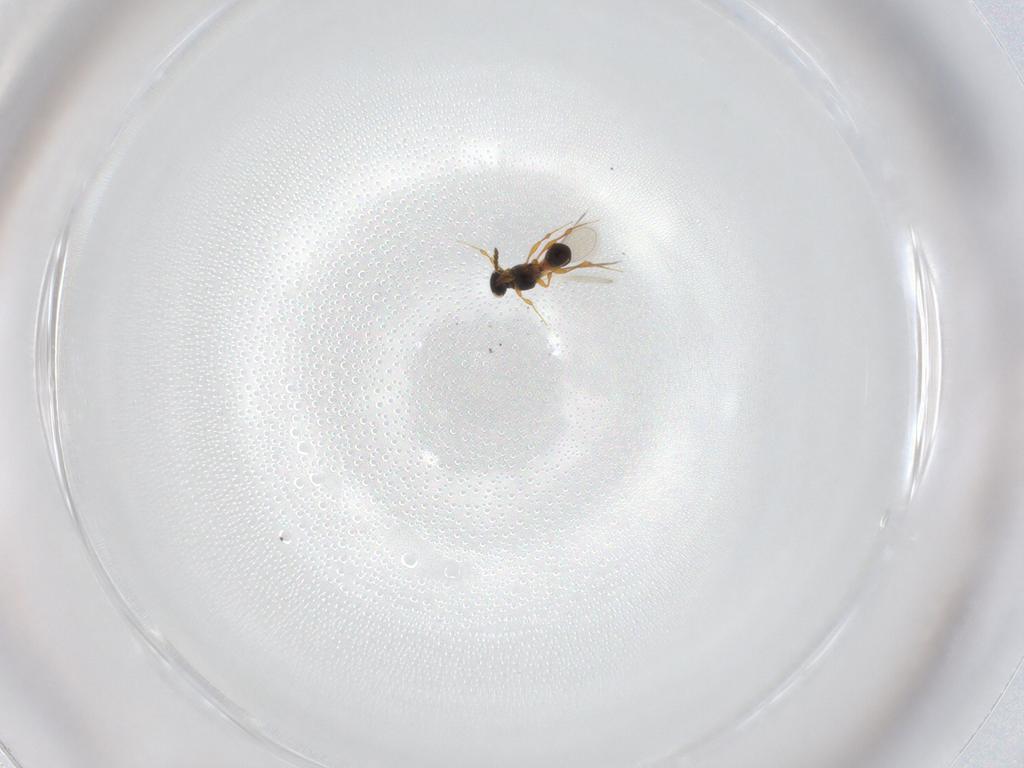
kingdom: Animalia
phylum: Arthropoda
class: Insecta
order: Hymenoptera
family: Platygastridae
